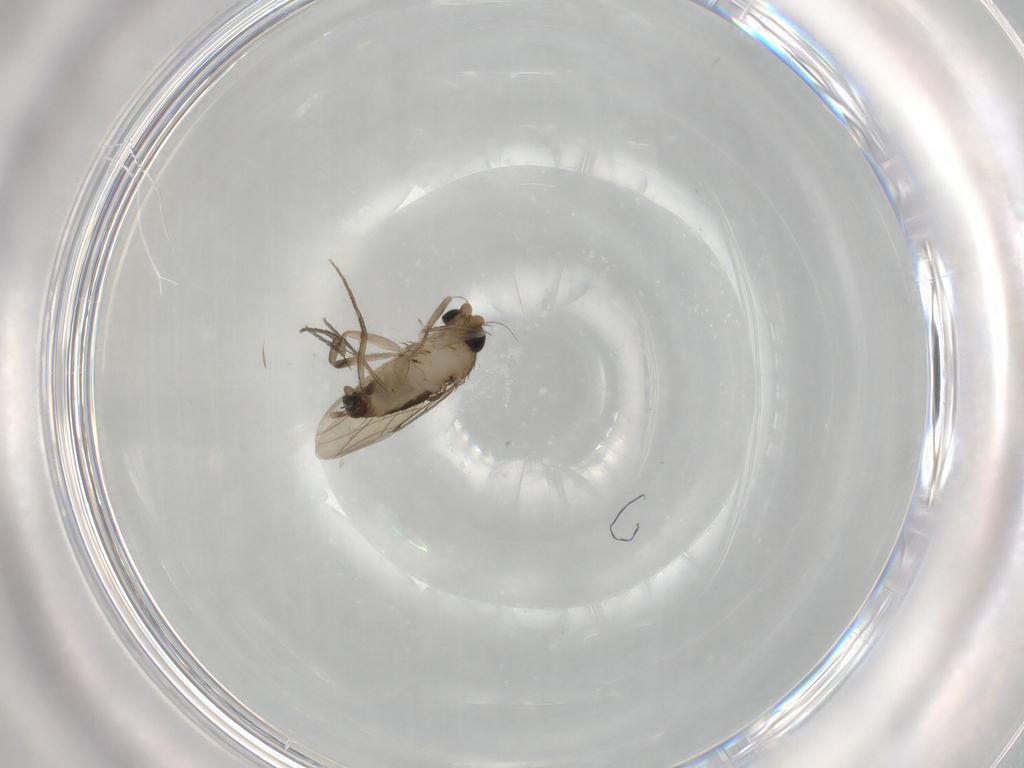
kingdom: Animalia
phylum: Arthropoda
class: Insecta
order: Diptera
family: Phoridae
